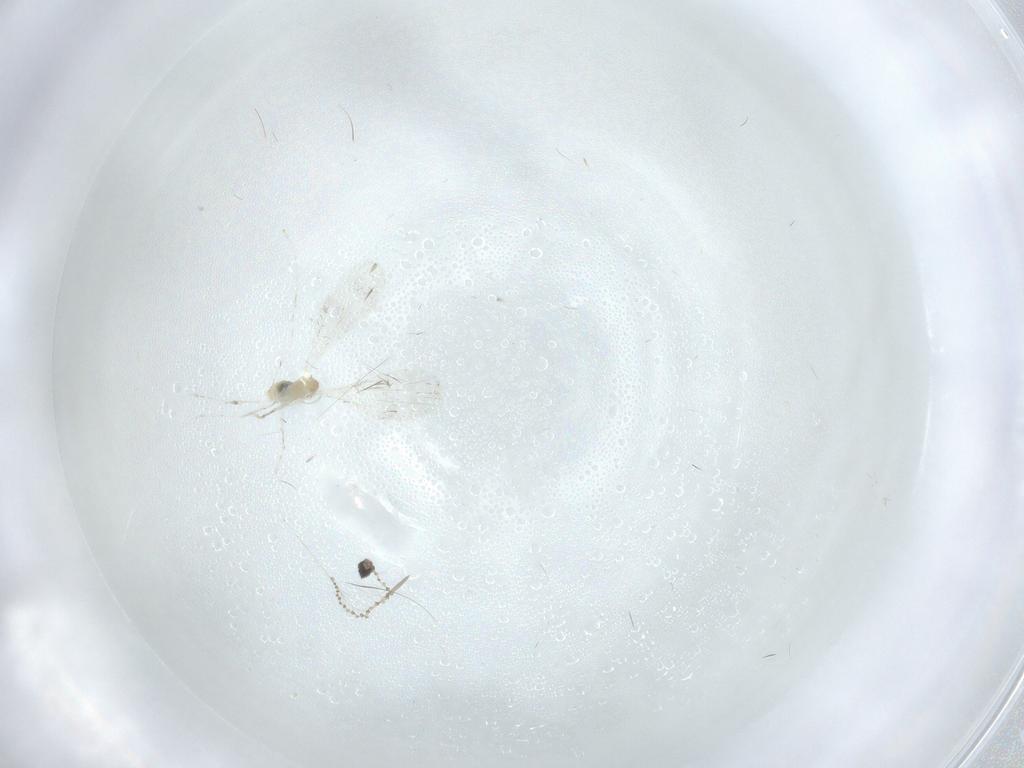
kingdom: Animalia
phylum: Arthropoda
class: Insecta
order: Diptera
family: Cecidomyiidae
